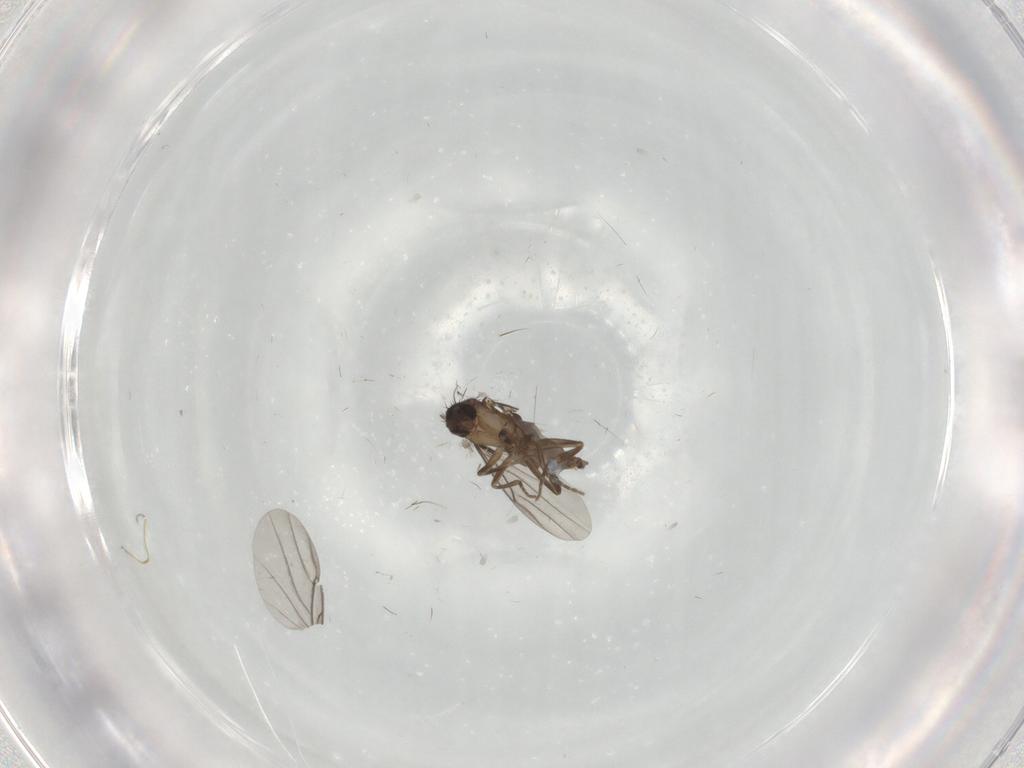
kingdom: Animalia
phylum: Arthropoda
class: Insecta
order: Diptera
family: Sciaridae
